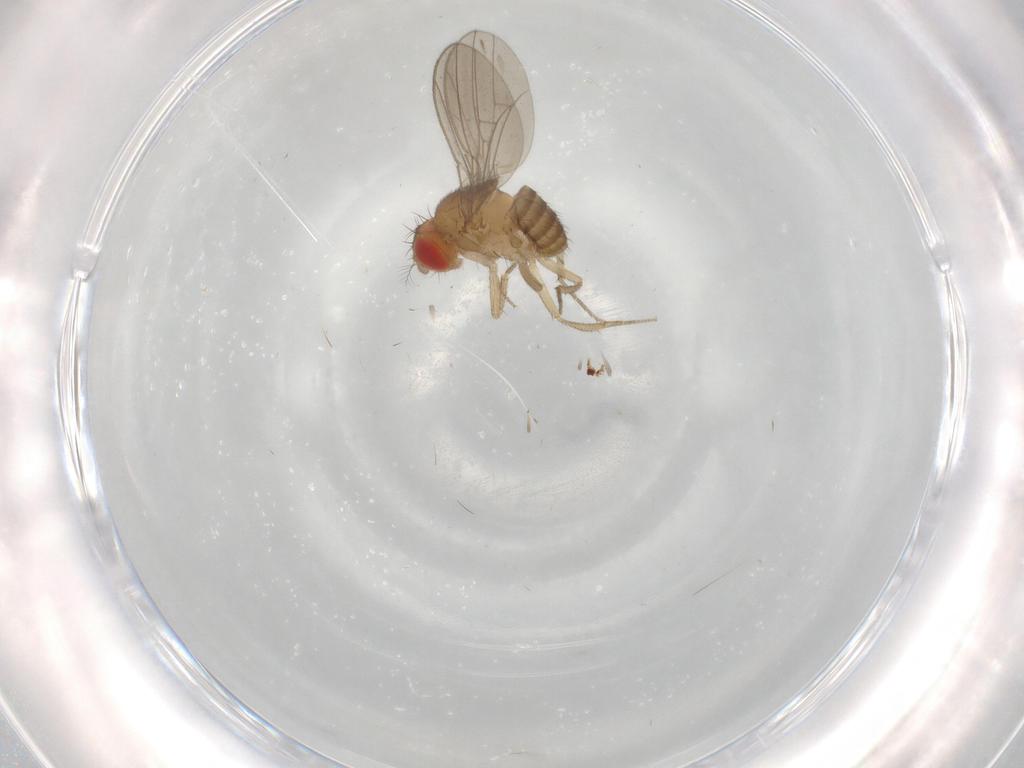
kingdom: Animalia
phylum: Arthropoda
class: Insecta
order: Diptera
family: Drosophilidae
